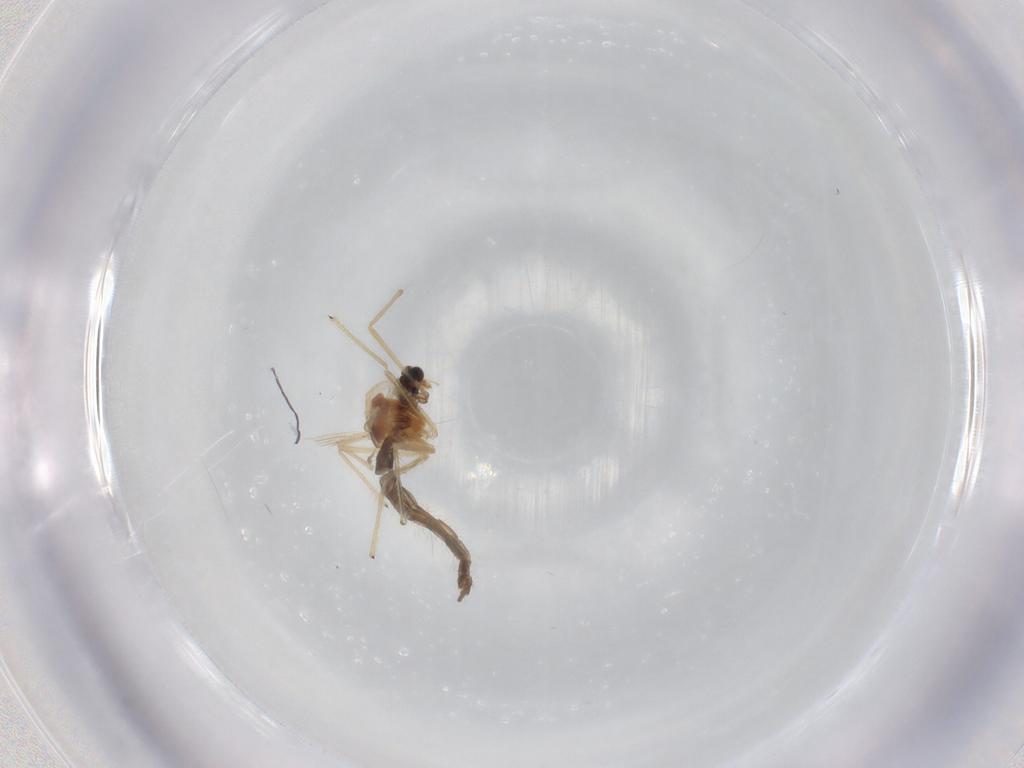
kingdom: Animalia
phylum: Arthropoda
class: Insecta
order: Diptera
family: Chironomidae
